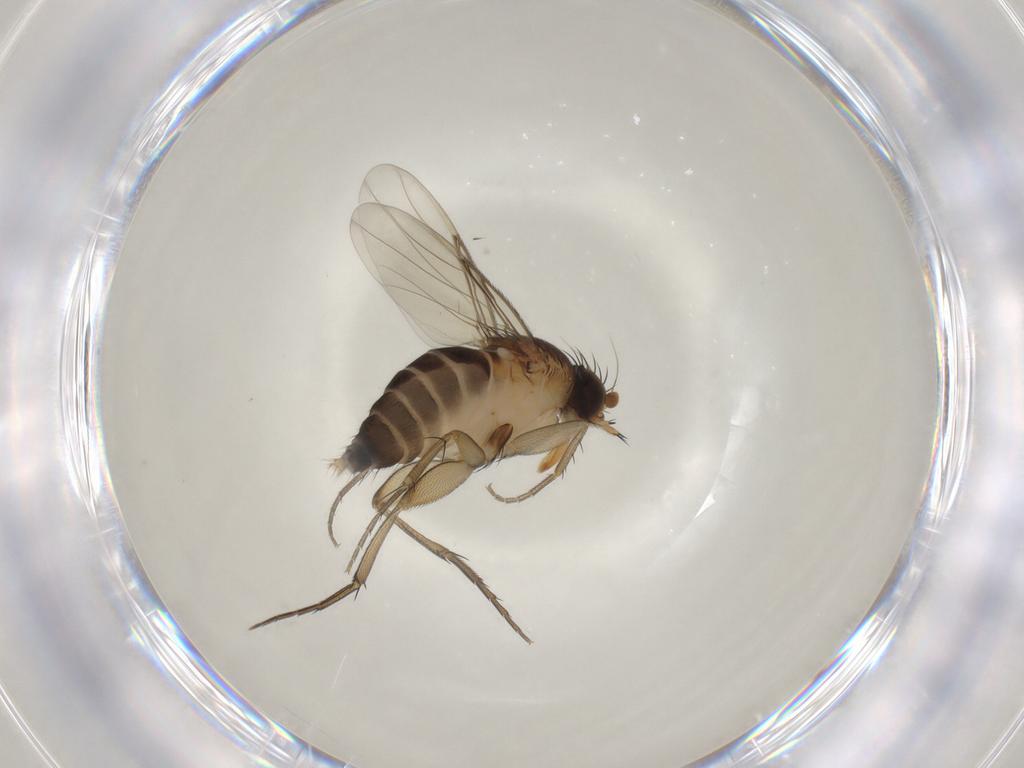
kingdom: Animalia
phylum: Arthropoda
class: Insecta
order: Diptera
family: Phoridae
